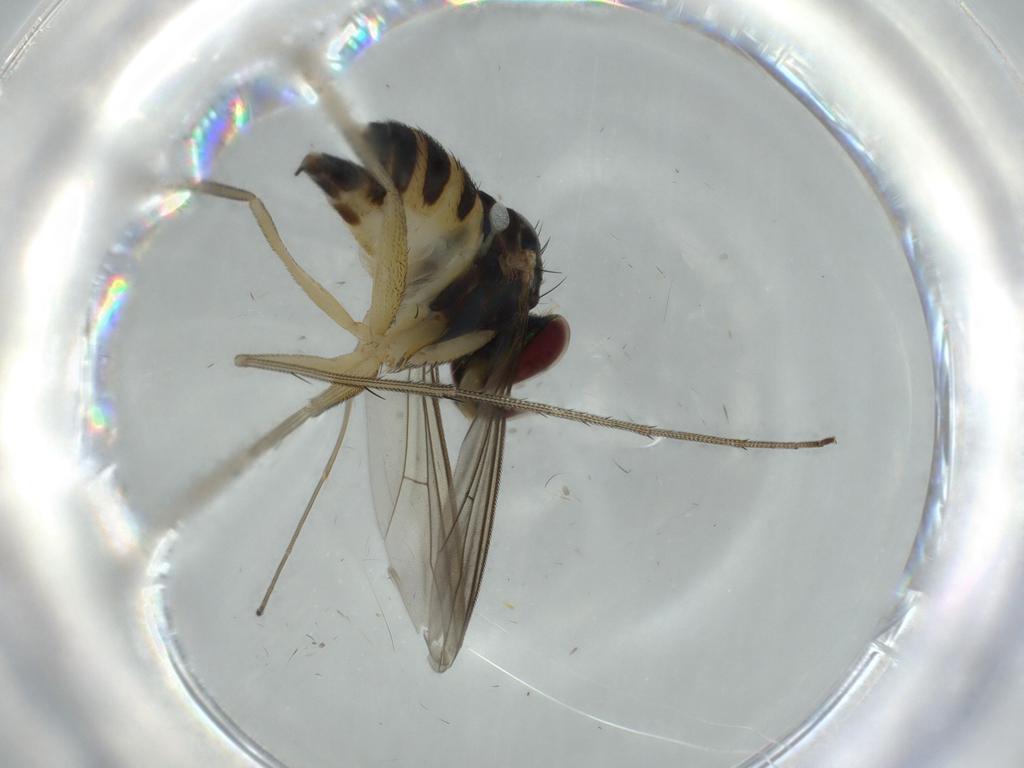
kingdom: Animalia
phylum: Arthropoda
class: Insecta
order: Diptera
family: Dolichopodidae
